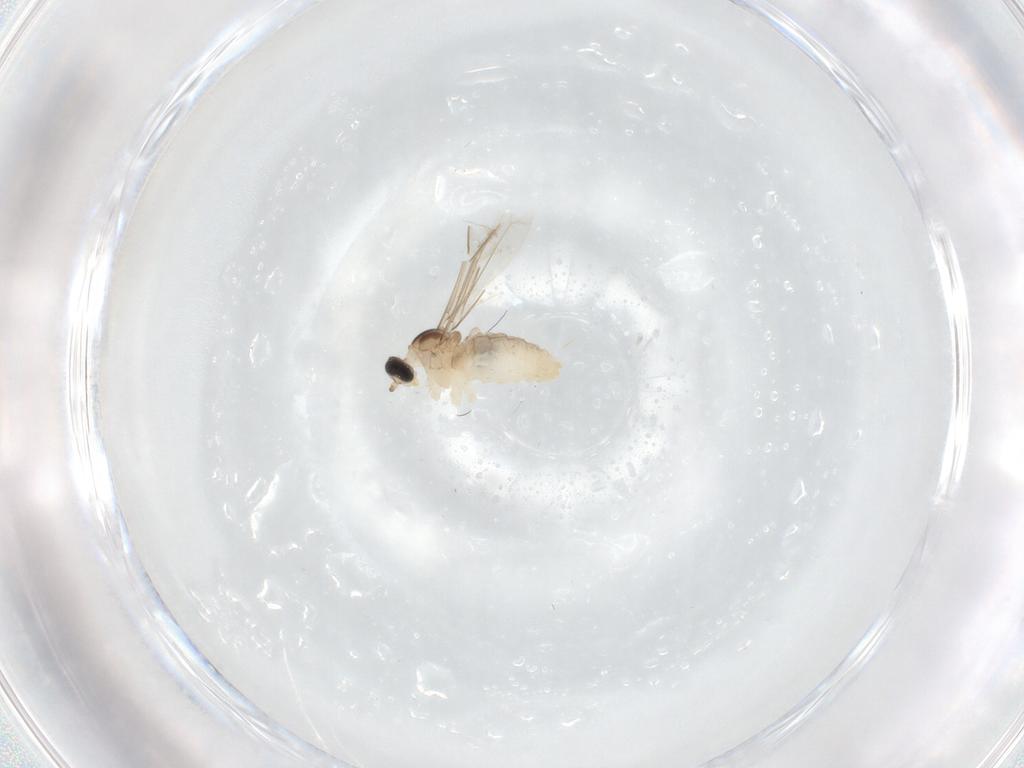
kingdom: Animalia
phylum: Arthropoda
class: Insecta
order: Diptera
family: Cecidomyiidae
